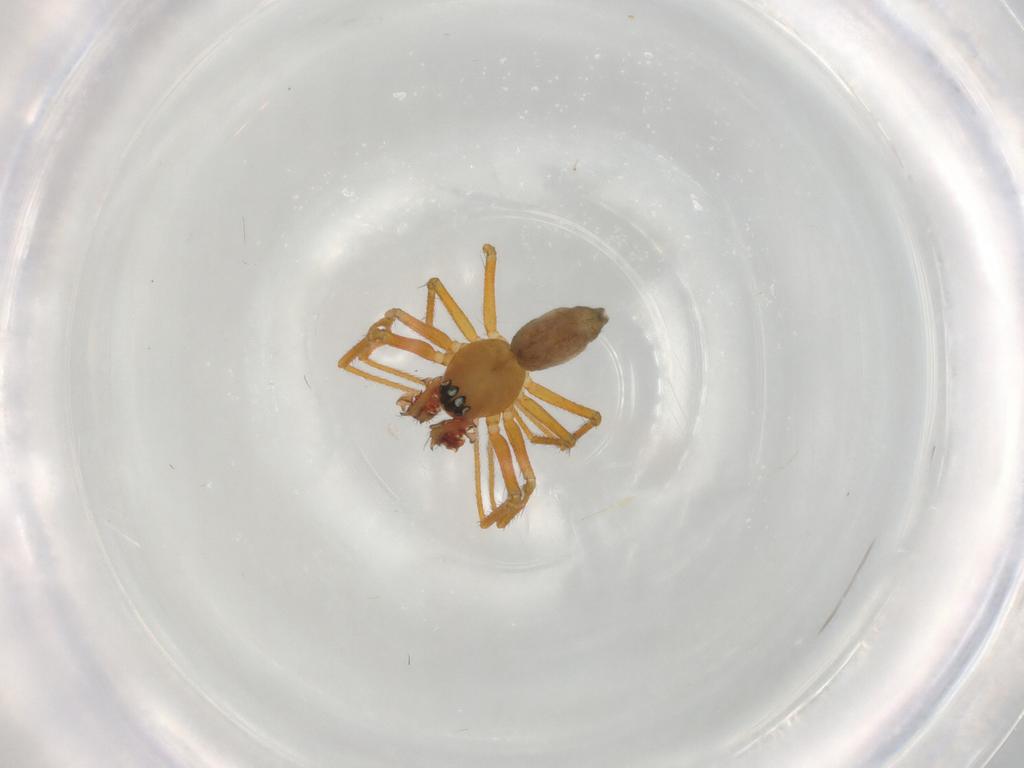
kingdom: Animalia
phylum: Arthropoda
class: Arachnida
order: Araneae
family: Linyphiidae
